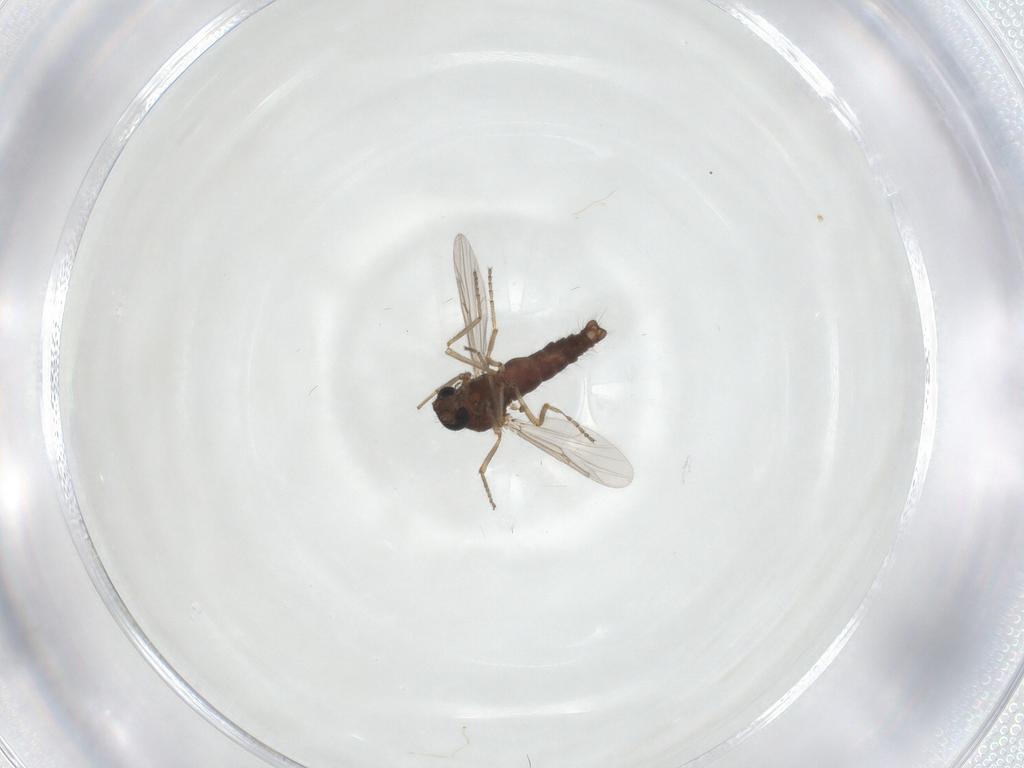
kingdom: Animalia
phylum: Arthropoda
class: Insecta
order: Diptera
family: Ceratopogonidae
